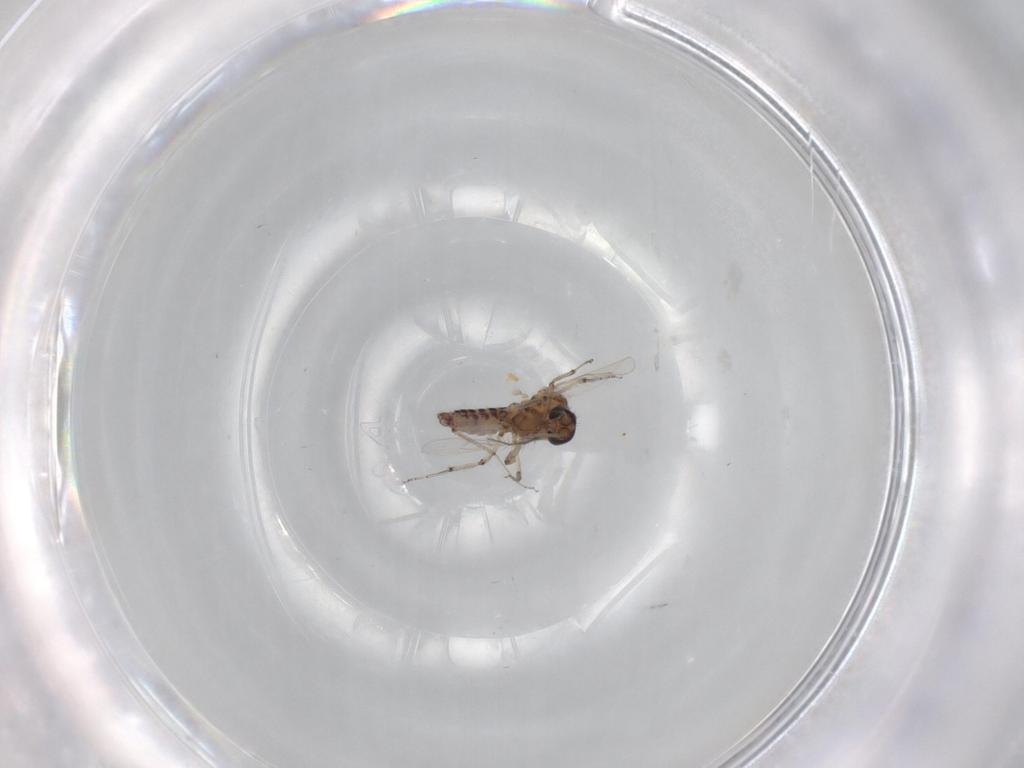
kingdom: Animalia
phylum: Arthropoda
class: Insecta
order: Diptera
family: Ceratopogonidae
